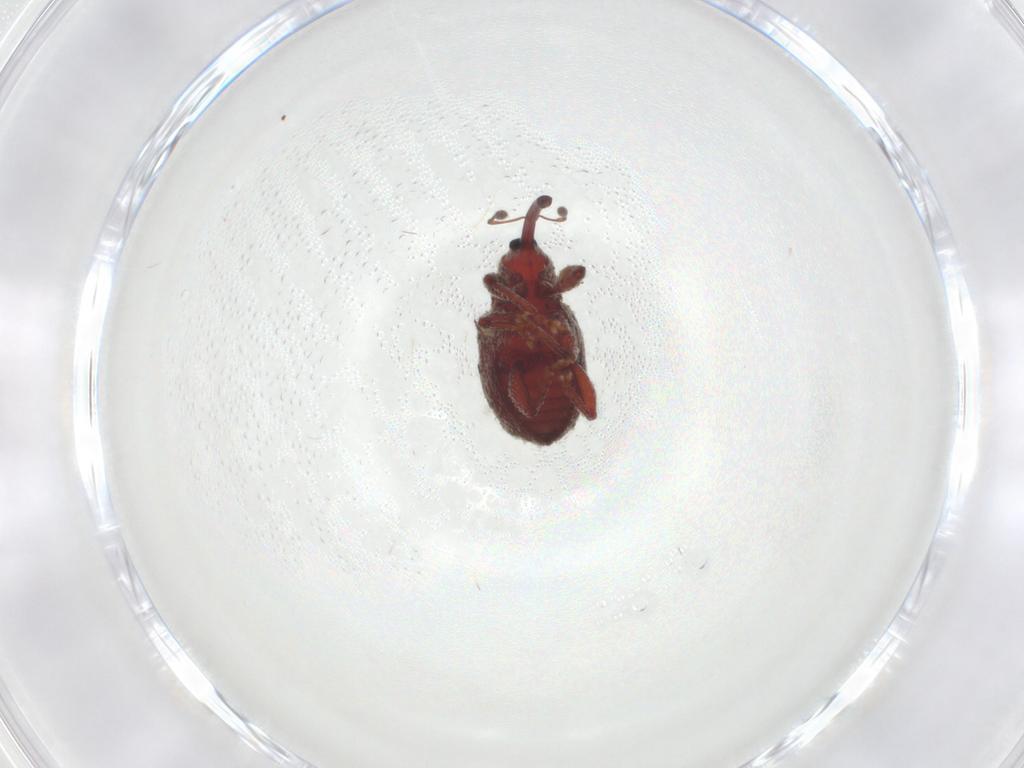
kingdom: Animalia
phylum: Arthropoda
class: Insecta
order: Coleoptera
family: Curculionidae
